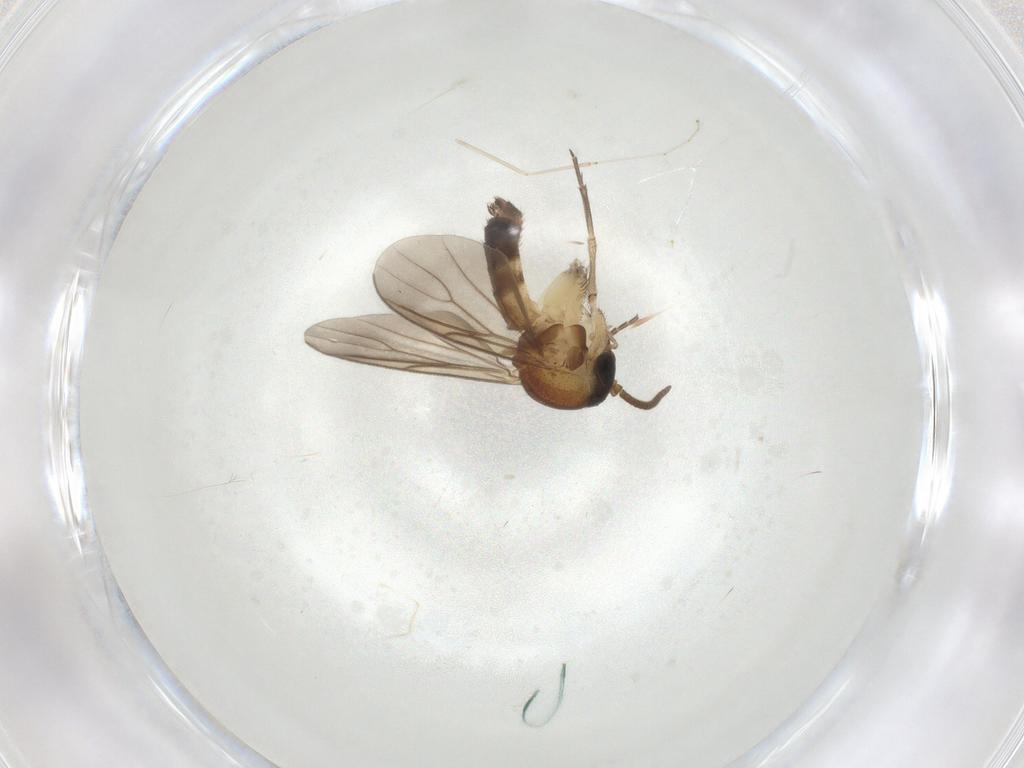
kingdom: Animalia
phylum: Arthropoda
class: Insecta
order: Diptera
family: Mycetophilidae
